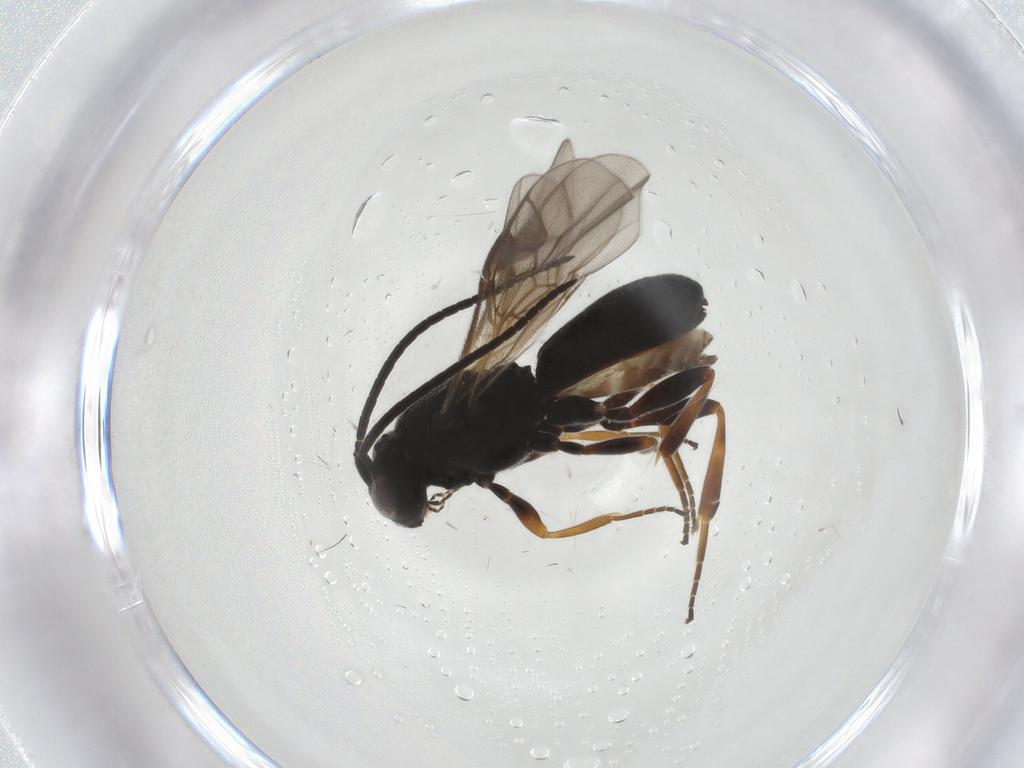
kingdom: Animalia
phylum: Arthropoda
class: Insecta
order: Hymenoptera
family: Braconidae
